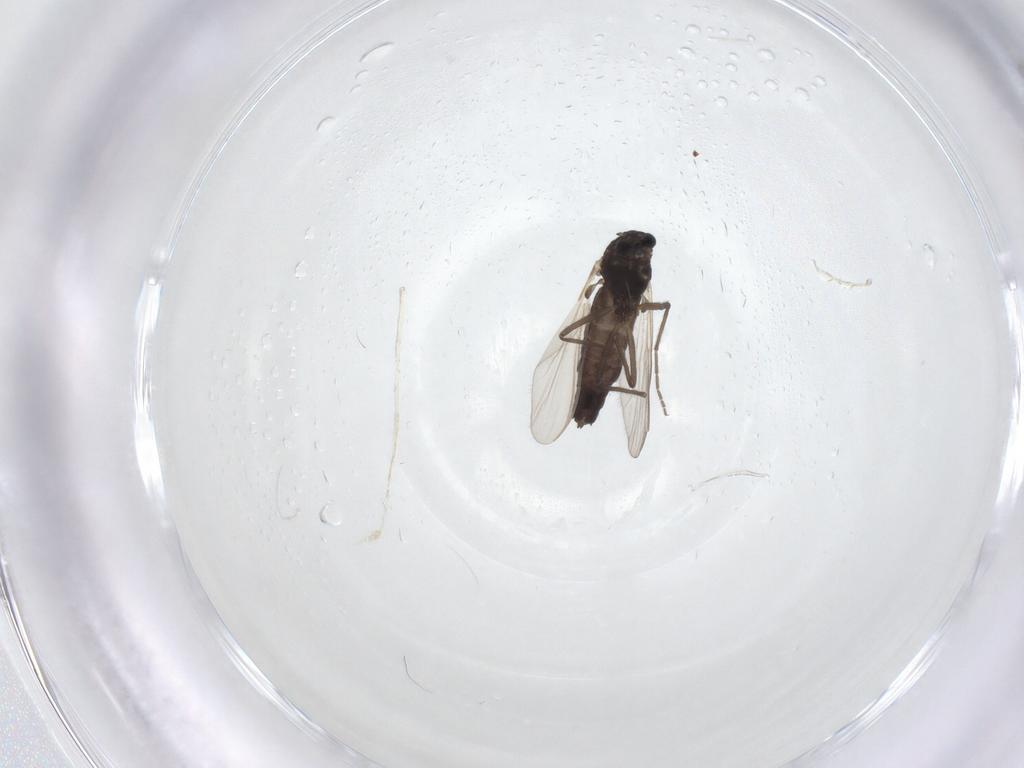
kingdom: Animalia
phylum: Arthropoda
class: Insecta
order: Diptera
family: Chironomidae
